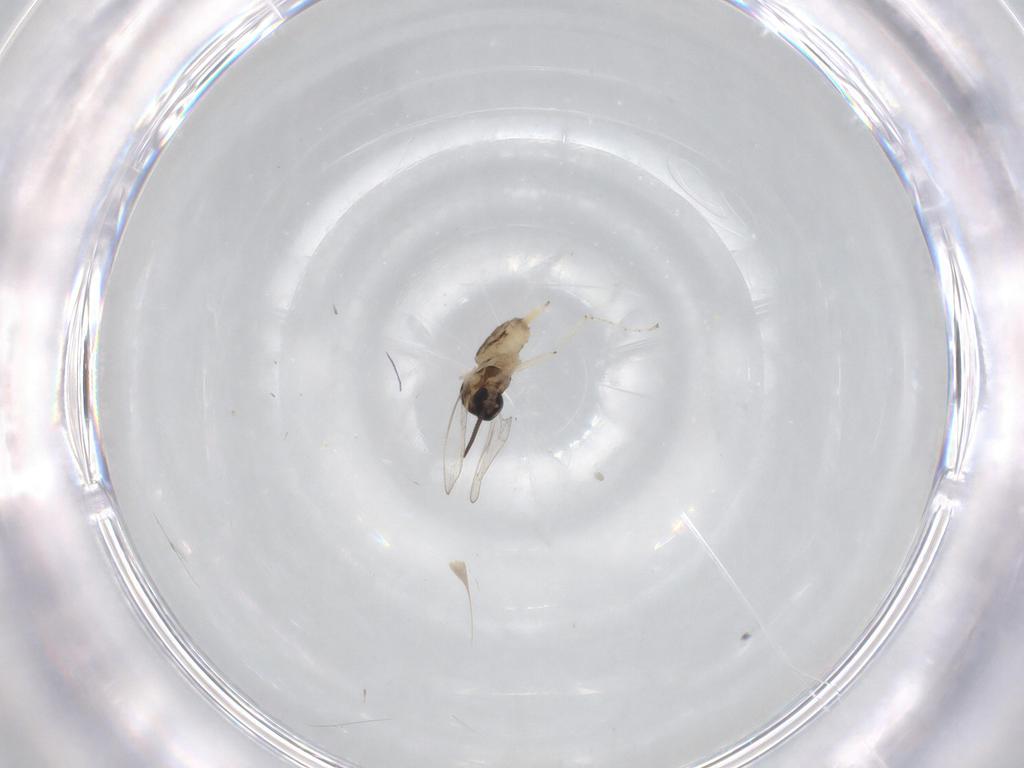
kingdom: Animalia
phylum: Arthropoda
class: Insecta
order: Diptera
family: Cecidomyiidae
